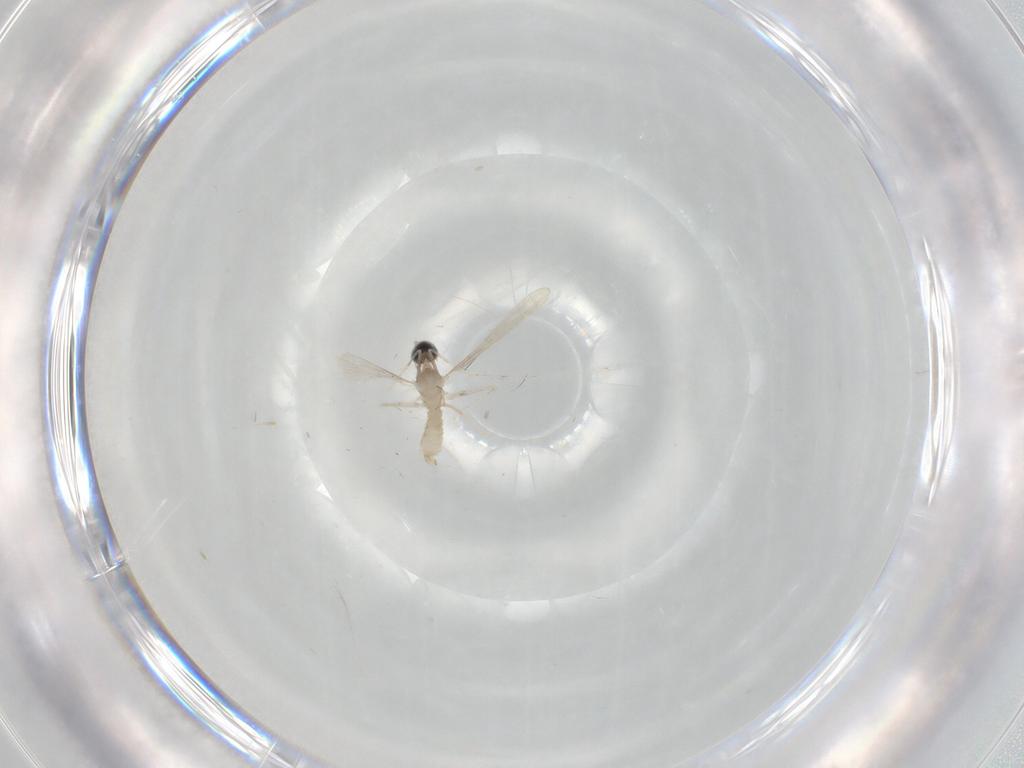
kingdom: Animalia
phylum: Arthropoda
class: Insecta
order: Diptera
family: Cecidomyiidae
